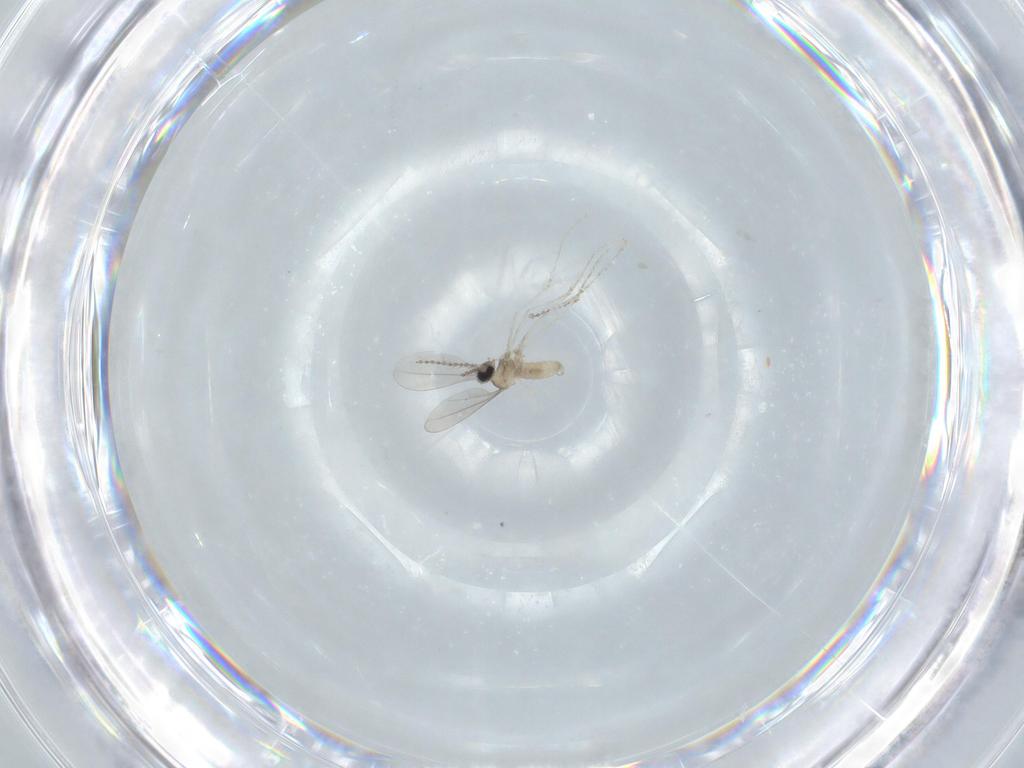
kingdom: Animalia
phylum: Arthropoda
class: Insecta
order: Diptera
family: Cecidomyiidae
